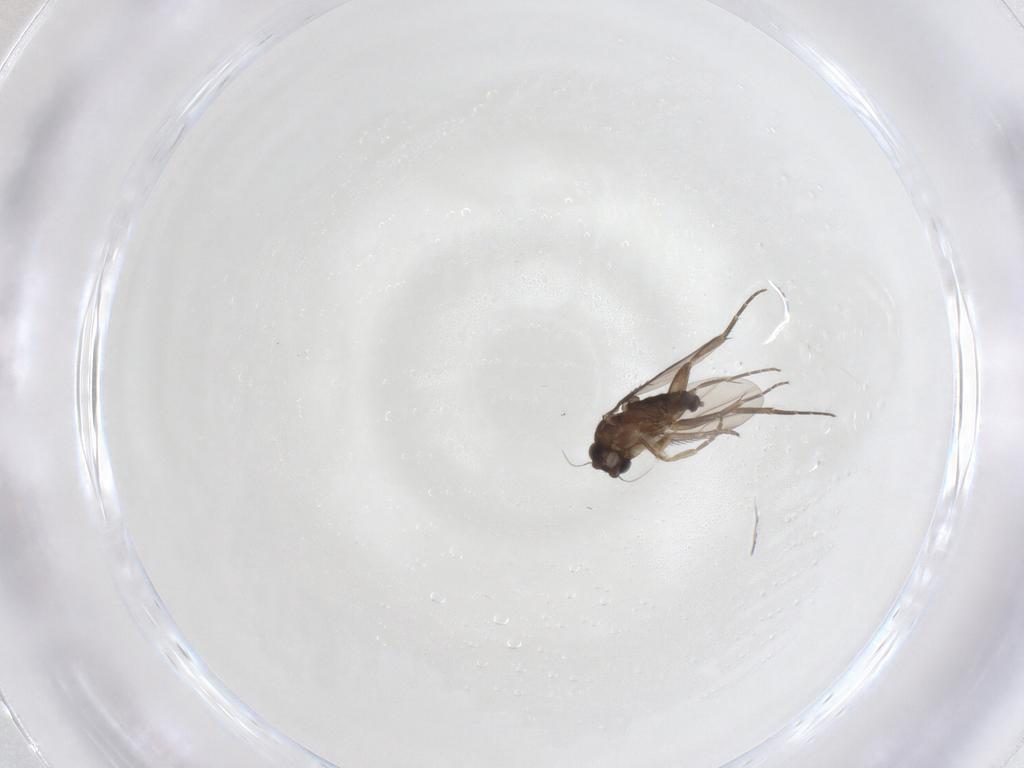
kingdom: Animalia
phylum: Arthropoda
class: Insecta
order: Diptera
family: Phoridae
